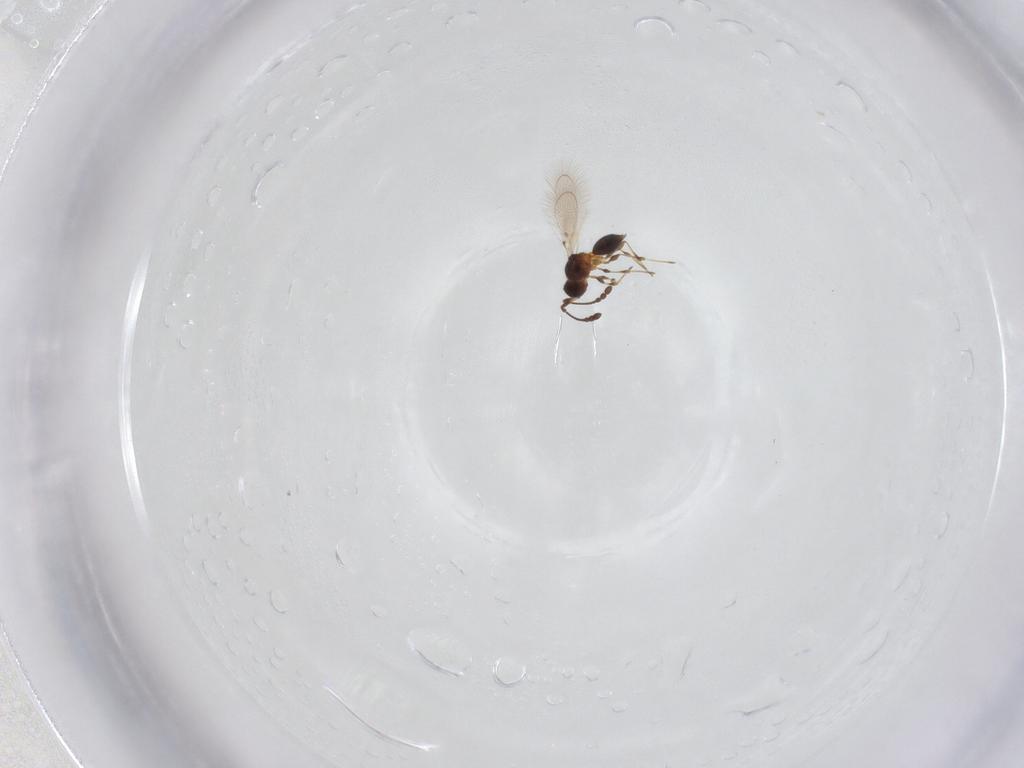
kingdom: Animalia
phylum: Arthropoda
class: Insecta
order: Hymenoptera
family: Diapriidae
